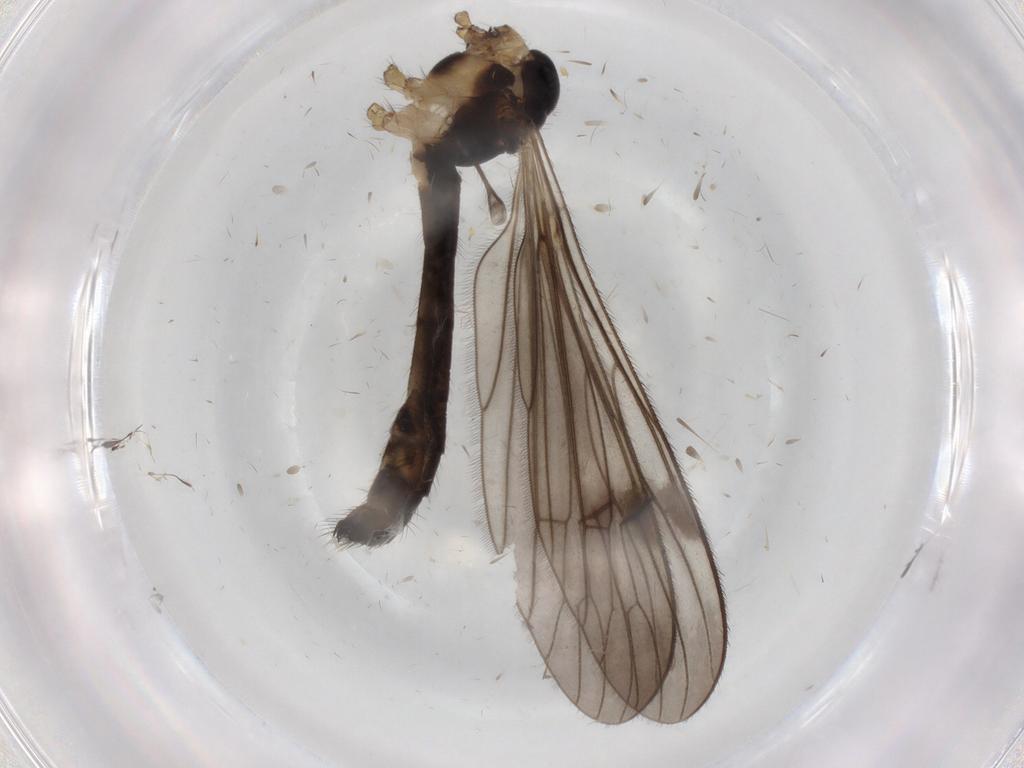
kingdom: Animalia
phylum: Arthropoda
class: Insecta
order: Diptera
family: Limoniidae
